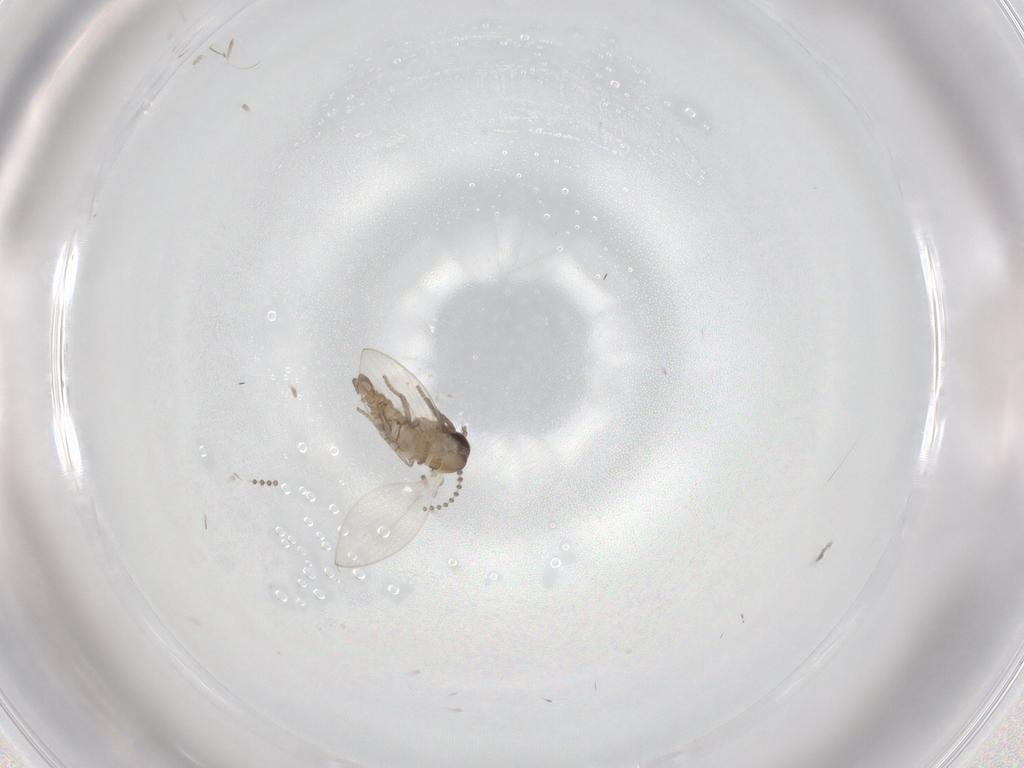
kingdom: Animalia
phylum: Arthropoda
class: Insecta
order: Diptera
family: Psychodidae
